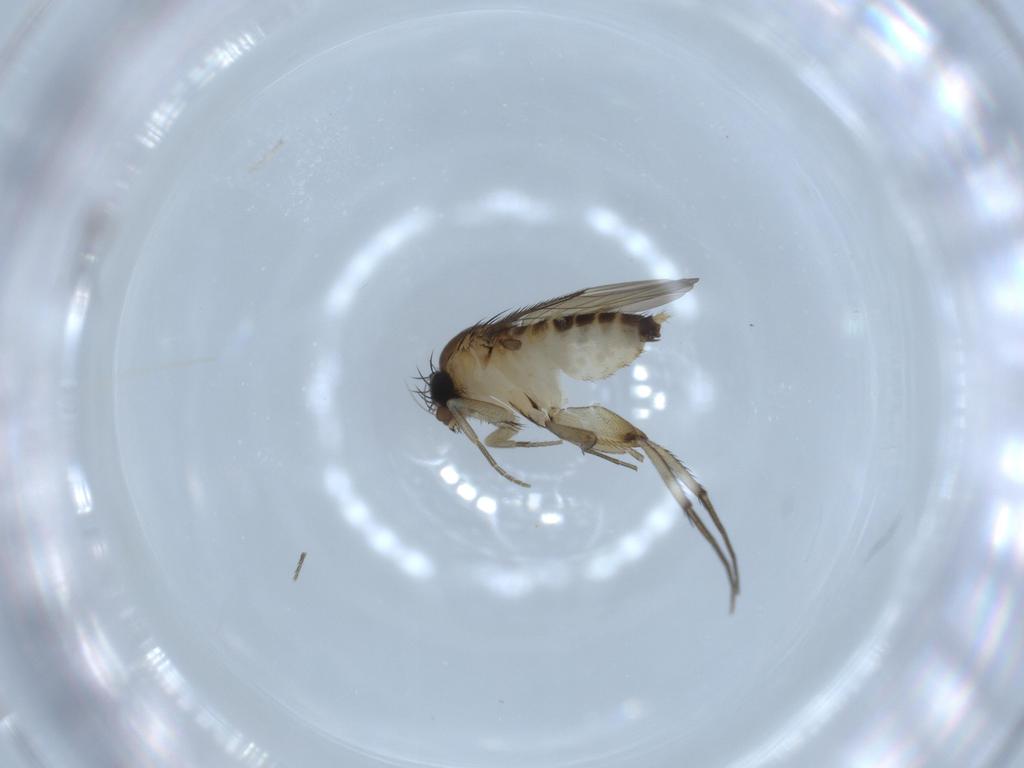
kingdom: Animalia
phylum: Arthropoda
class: Insecta
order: Diptera
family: Phoridae
